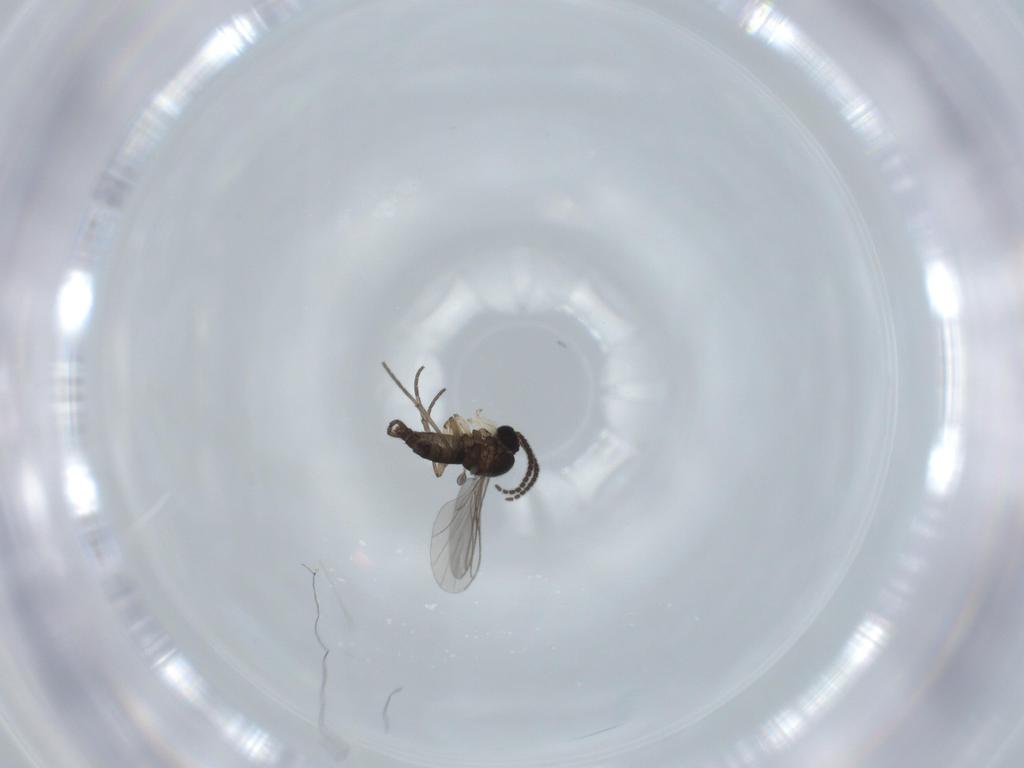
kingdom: Animalia
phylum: Arthropoda
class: Insecta
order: Diptera
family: Sciaridae
